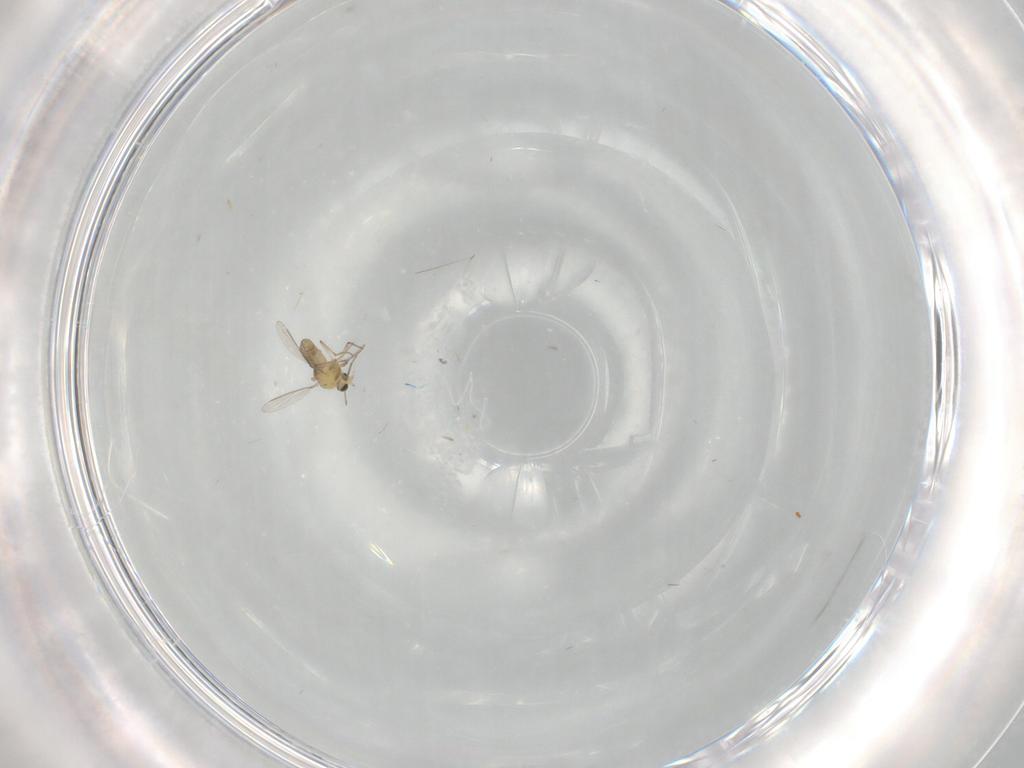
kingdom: Animalia
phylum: Arthropoda
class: Insecta
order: Diptera
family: Chironomidae
